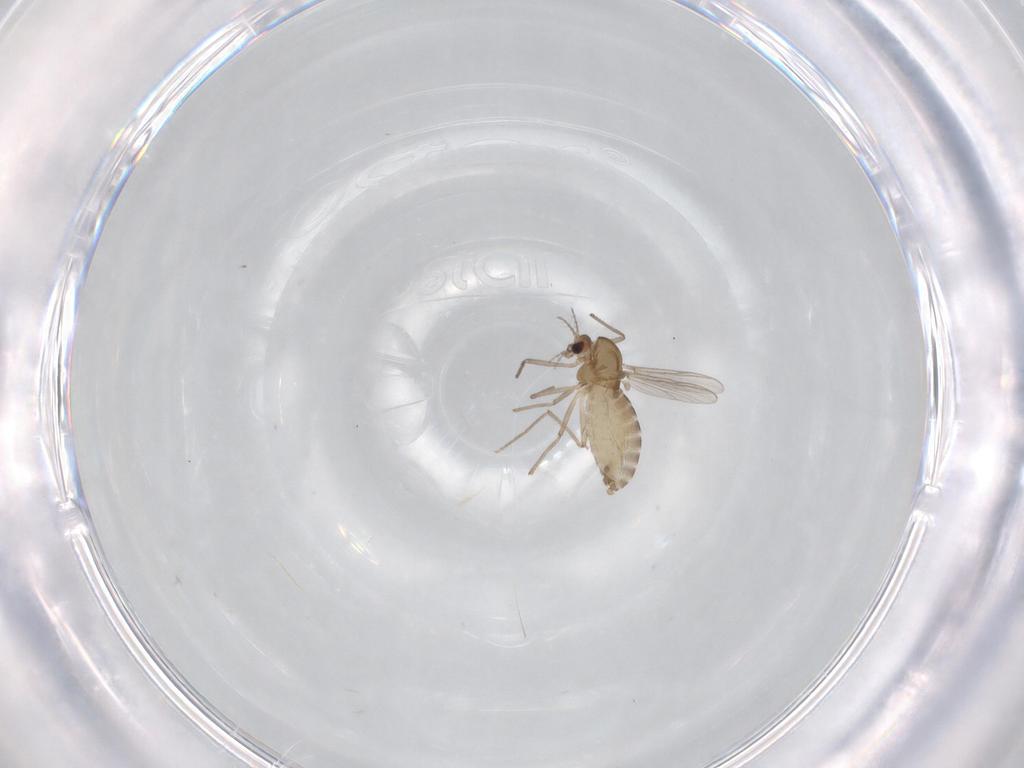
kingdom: Animalia
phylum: Arthropoda
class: Insecta
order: Diptera
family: Chironomidae
